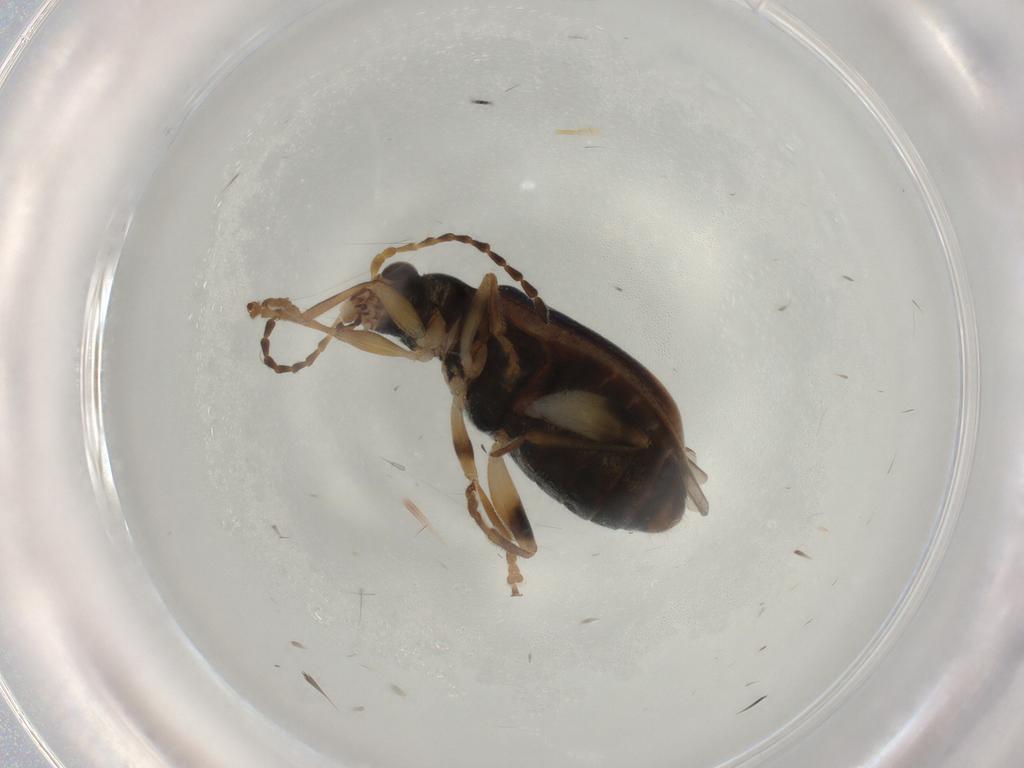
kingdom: Animalia
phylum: Arthropoda
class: Insecta
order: Coleoptera
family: Chrysomelidae
